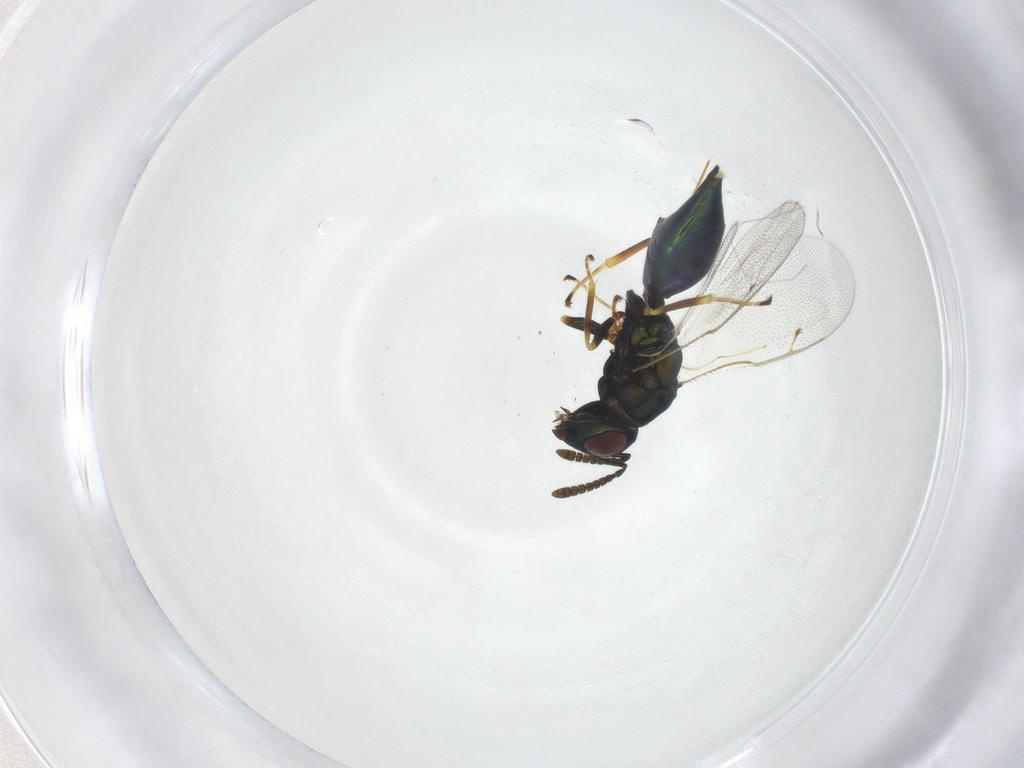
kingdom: Animalia
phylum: Arthropoda
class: Insecta
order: Hymenoptera
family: Pteromalidae
